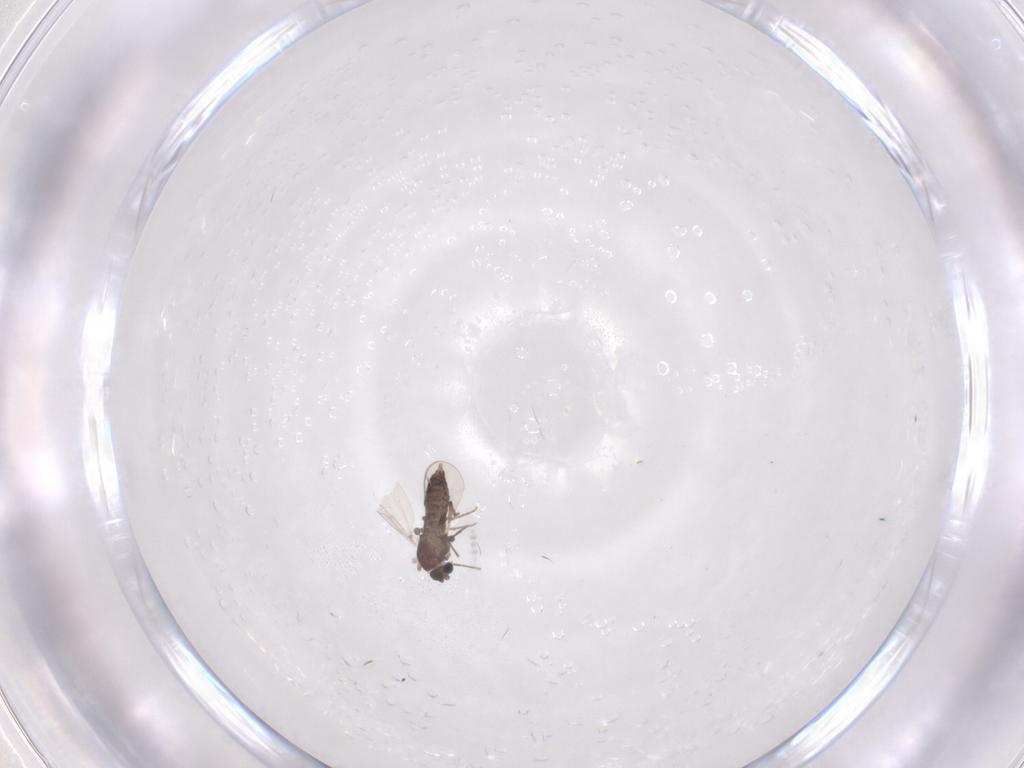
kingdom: Animalia
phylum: Arthropoda
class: Insecta
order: Diptera
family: Chironomidae
